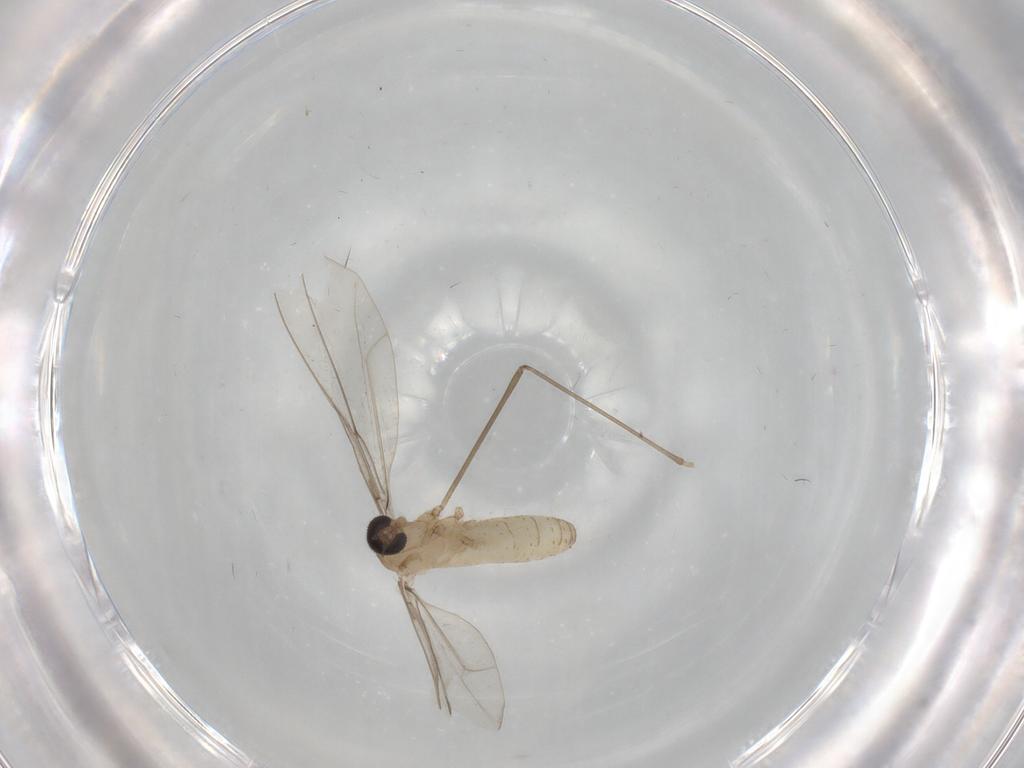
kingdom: Animalia
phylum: Arthropoda
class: Insecta
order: Diptera
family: Cecidomyiidae
